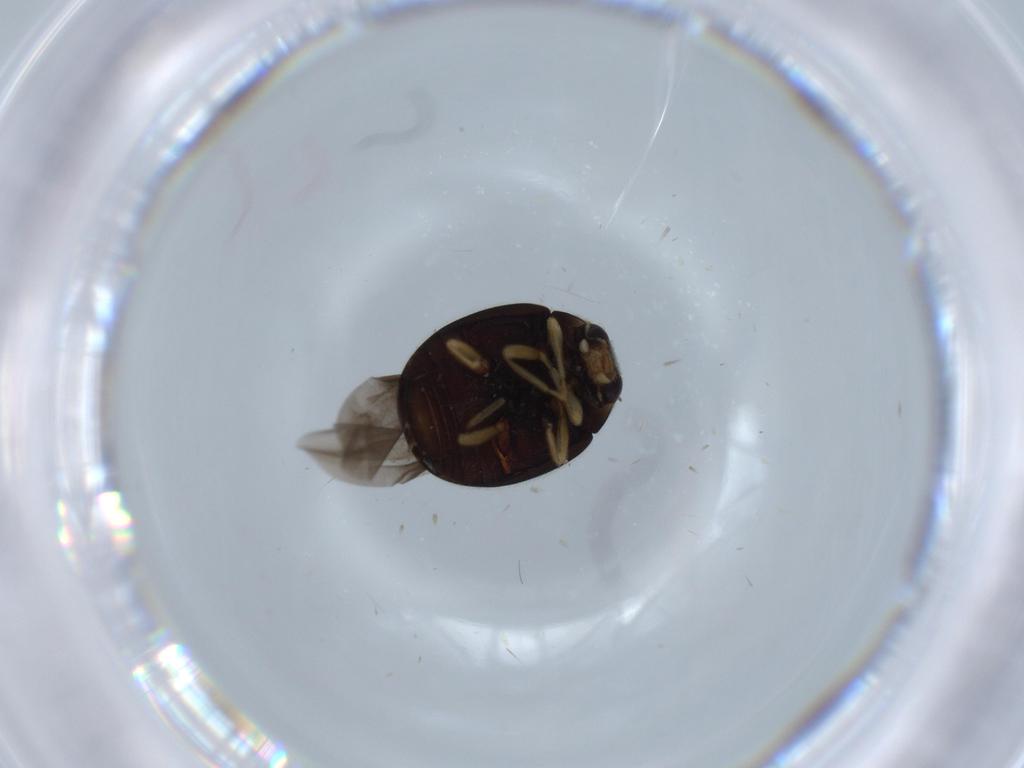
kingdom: Animalia
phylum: Arthropoda
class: Insecta
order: Coleoptera
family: Coccinellidae
